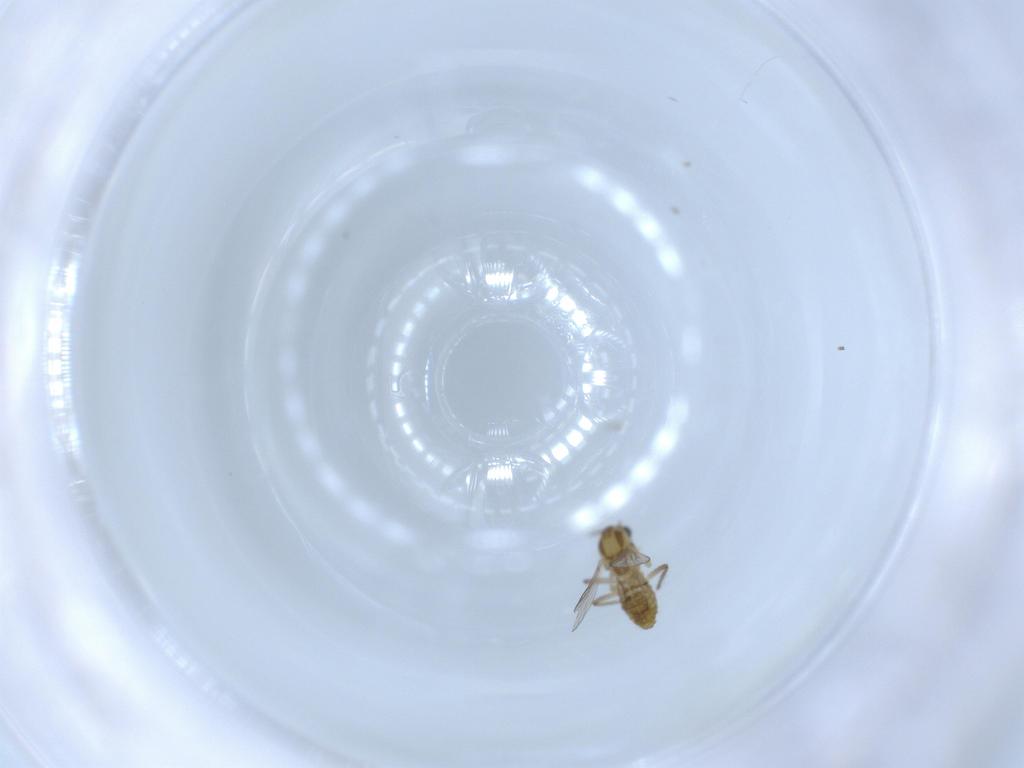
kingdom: Animalia
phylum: Arthropoda
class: Insecta
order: Diptera
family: Chironomidae
